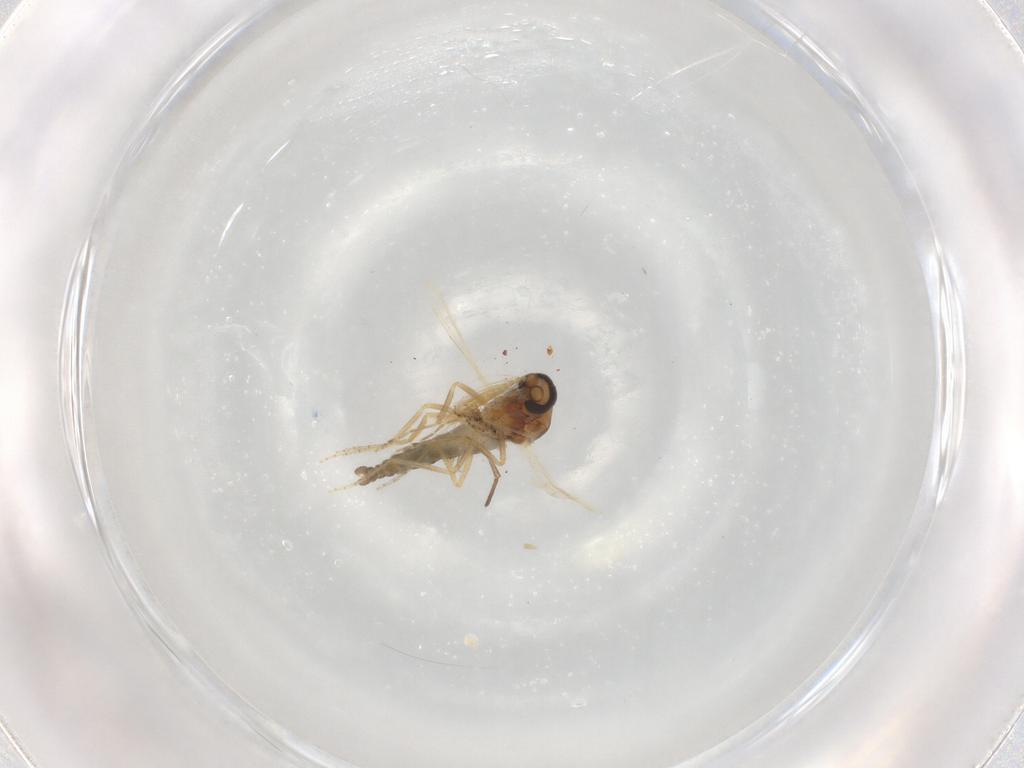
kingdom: Animalia
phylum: Arthropoda
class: Insecta
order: Diptera
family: Ceratopogonidae
